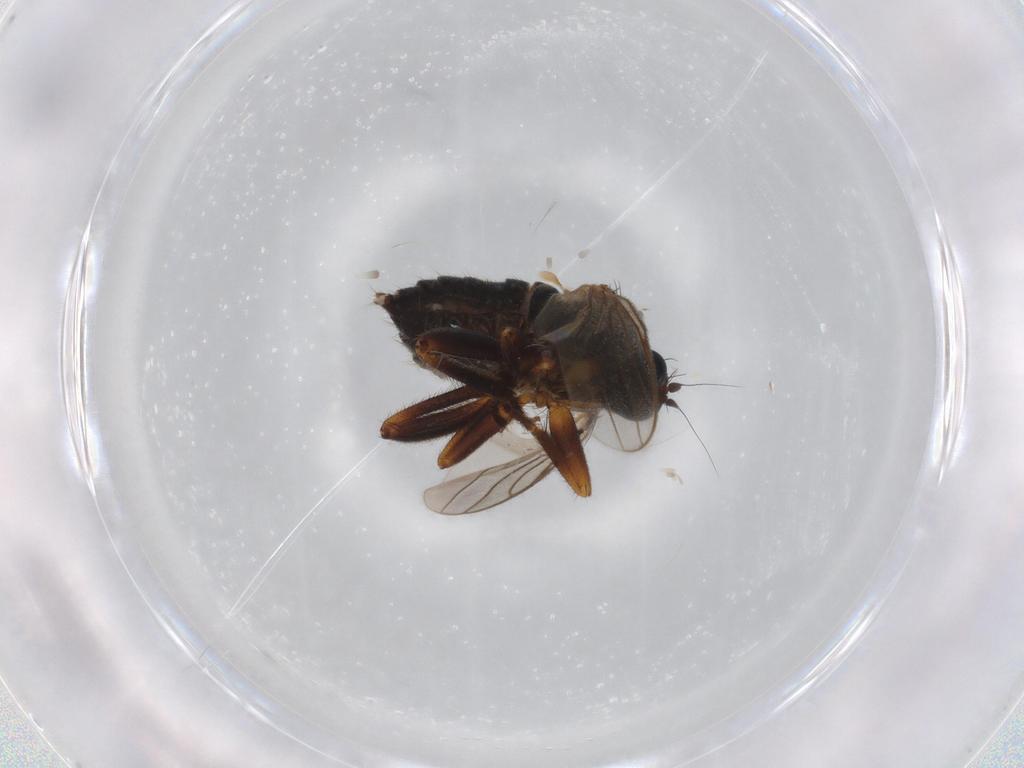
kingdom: Animalia
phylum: Arthropoda
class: Insecta
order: Diptera
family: Hybotidae
